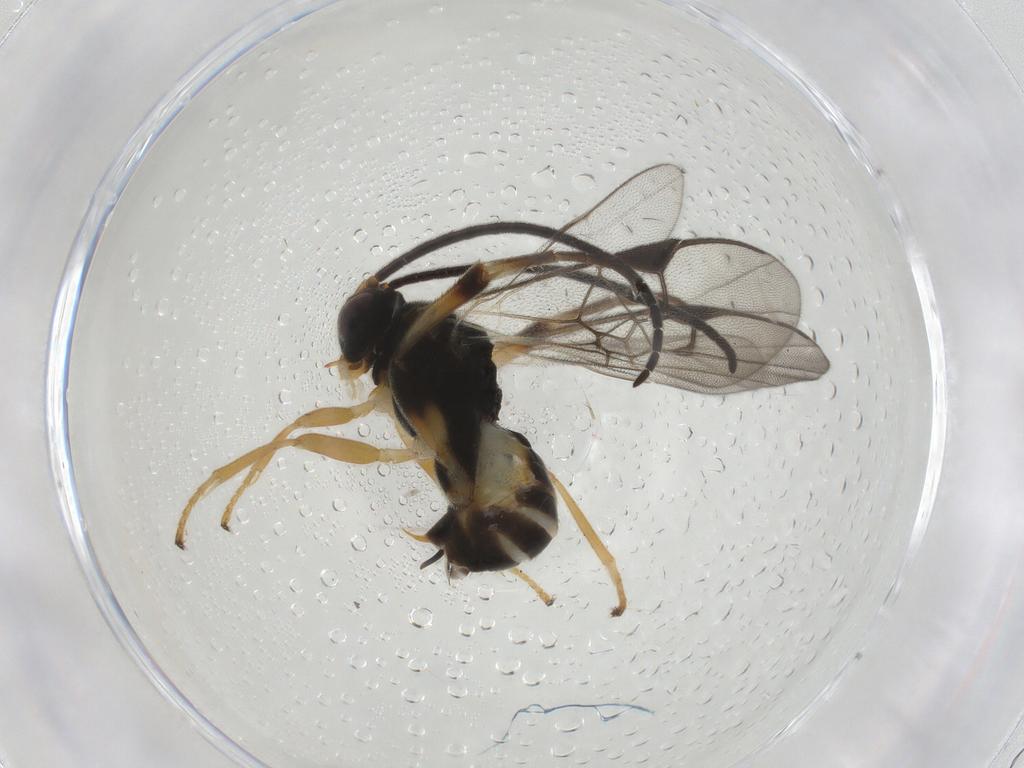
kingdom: Animalia
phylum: Arthropoda
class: Insecta
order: Hymenoptera
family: Braconidae
